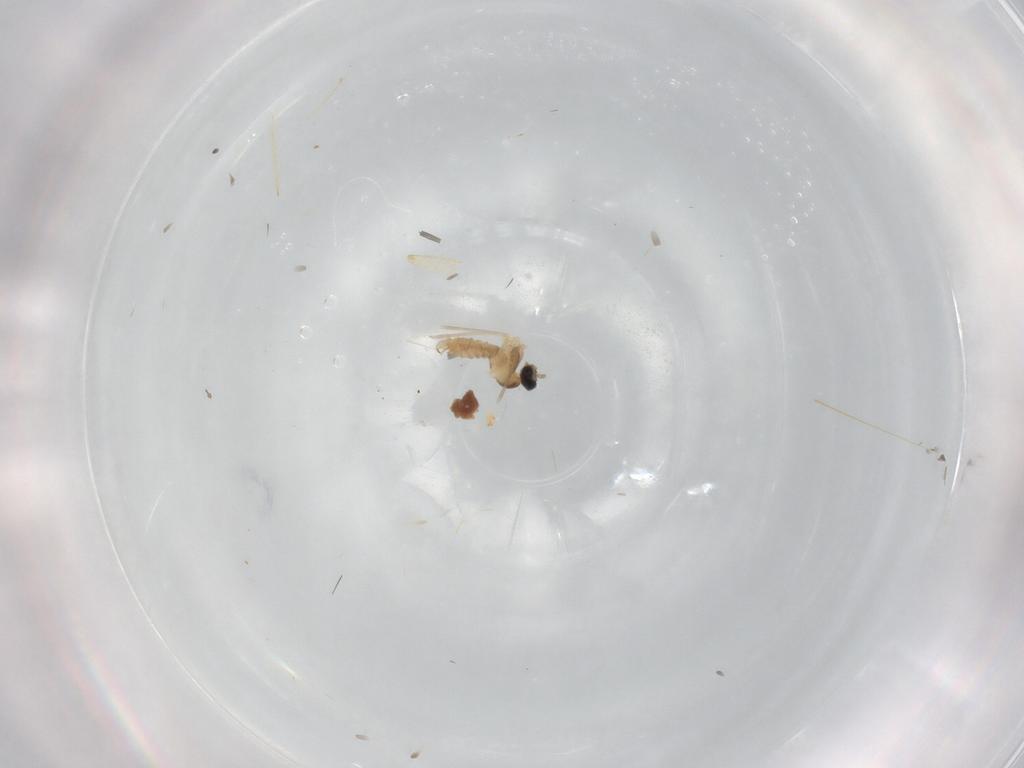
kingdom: Animalia
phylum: Arthropoda
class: Insecta
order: Diptera
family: Cecidomyiidae
